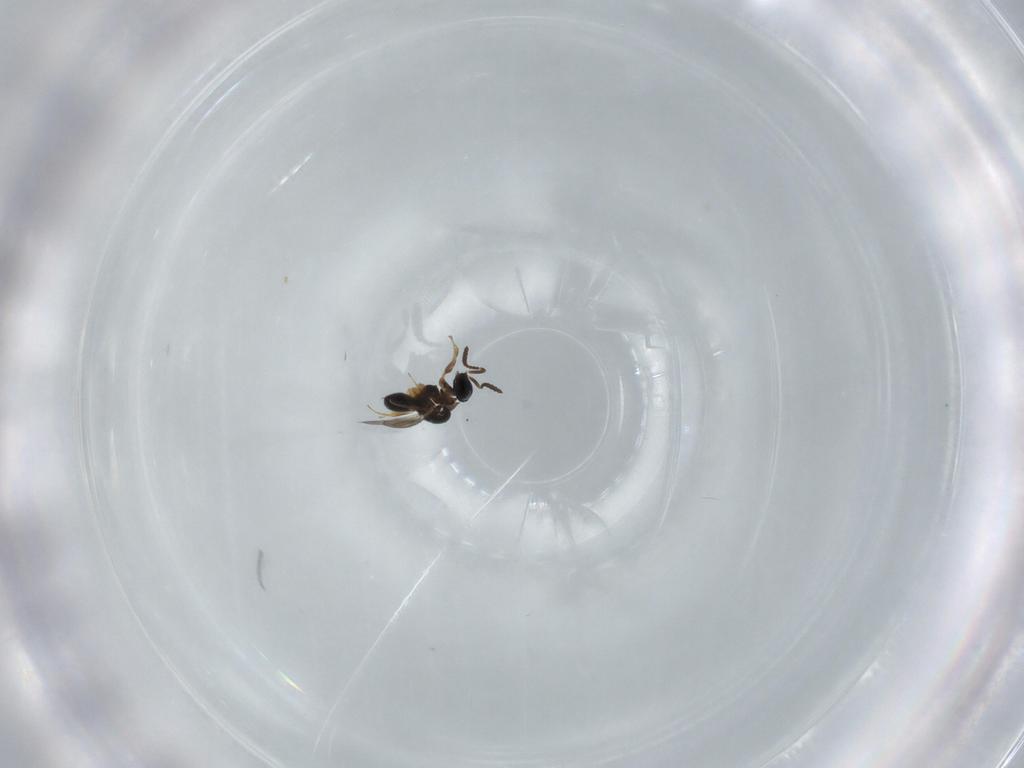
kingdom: Animalia
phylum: Arthropoda
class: Insecta
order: Hymenoptera
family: Scelionidae
